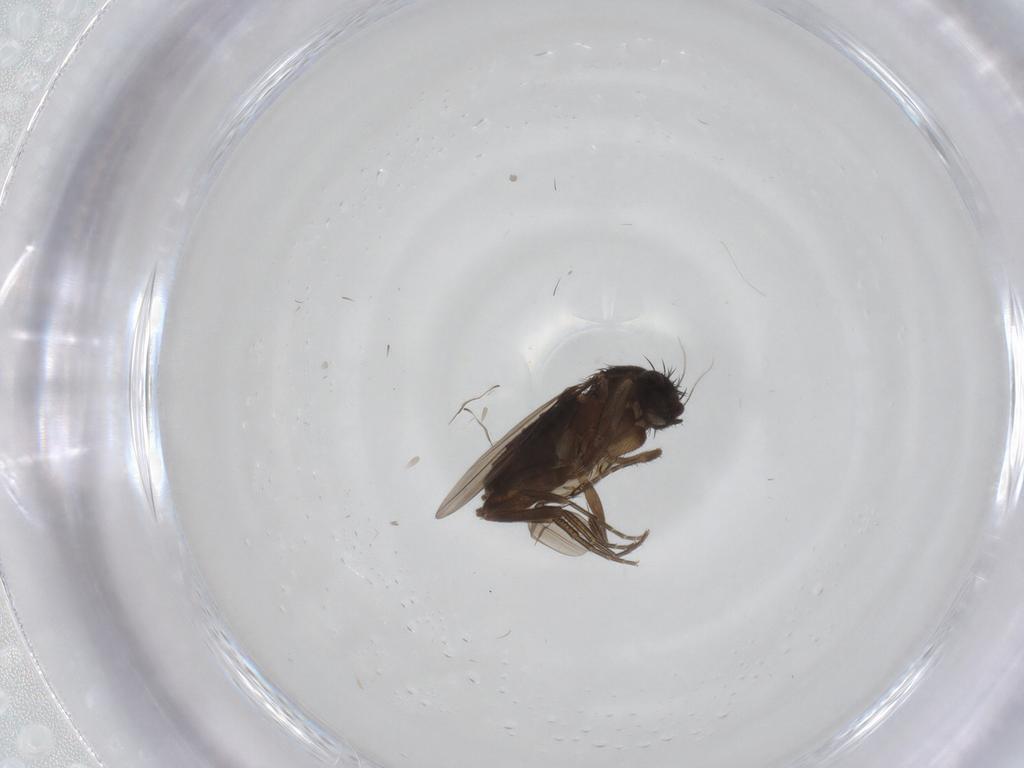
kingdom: Animalia
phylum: Arthropoda
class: Insecta
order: Diptera
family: Phoridae
